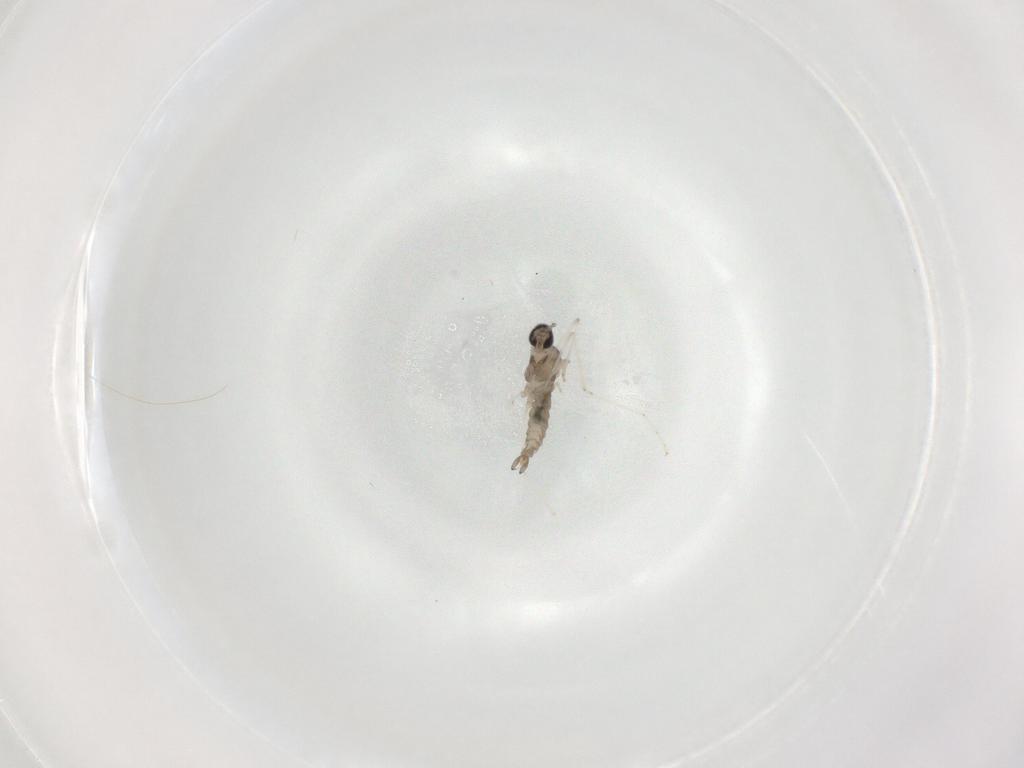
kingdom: Animalia
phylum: Arthropoda
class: Insecta
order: Diptera
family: Cecidomyiidae
